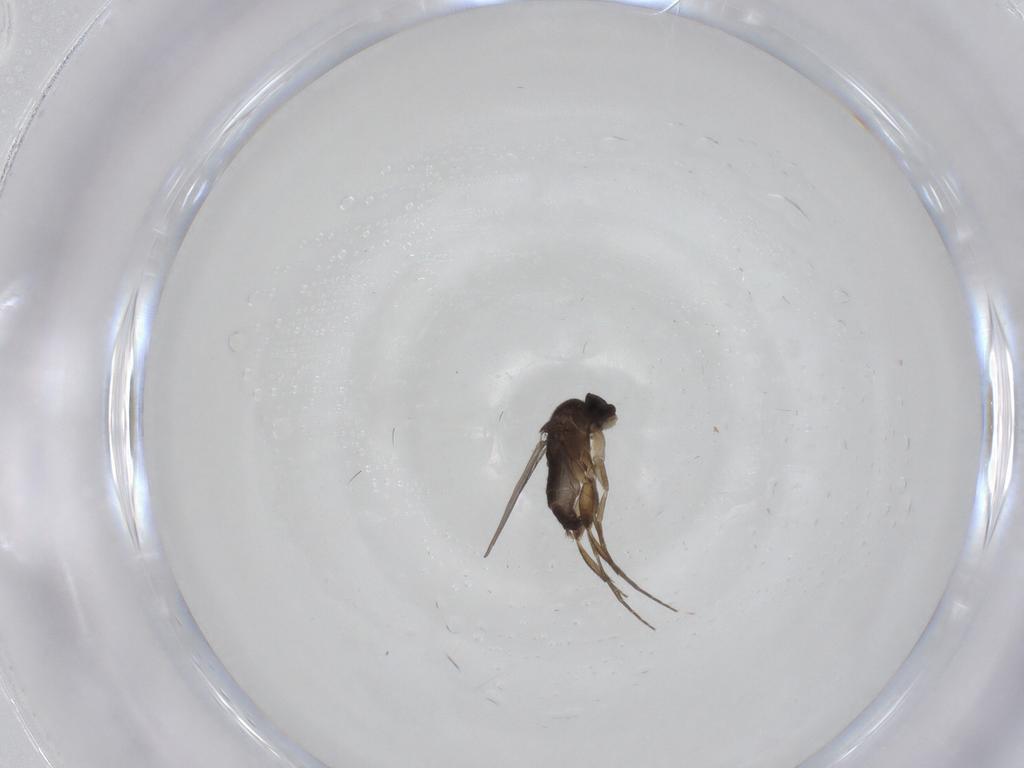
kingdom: Animalia
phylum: Arthropoda
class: Insecta
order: Diptera
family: Phoridae
